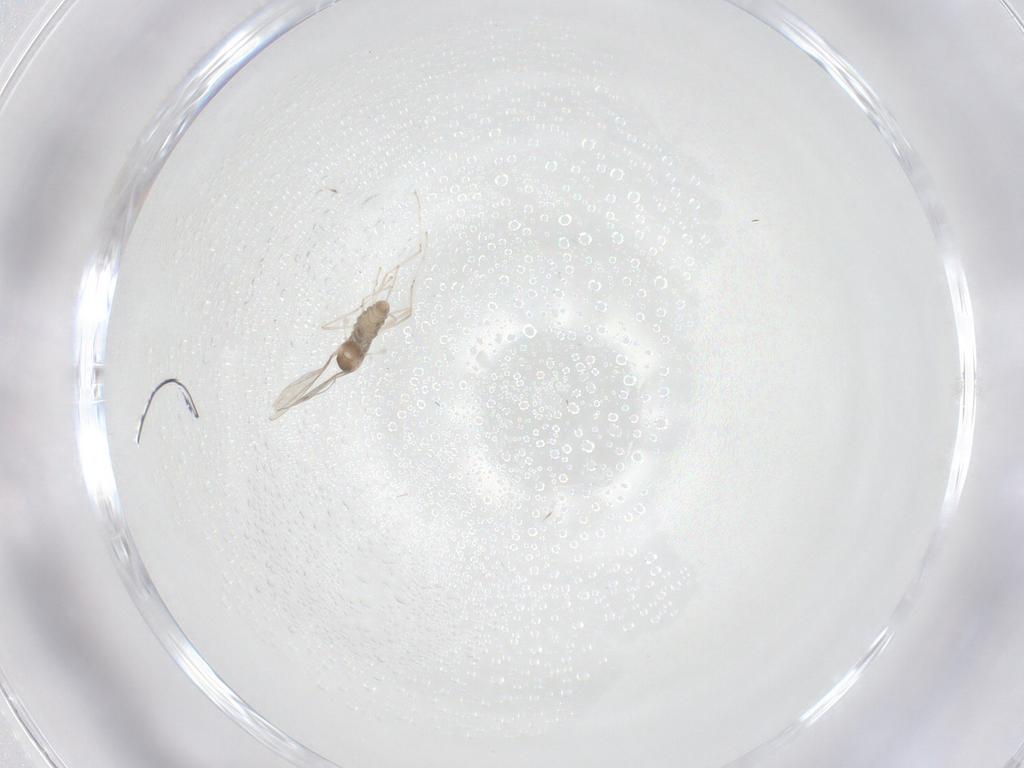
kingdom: Animalia
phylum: Arthropoda
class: Insecta
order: Diptera
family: Cecidomyiidae
